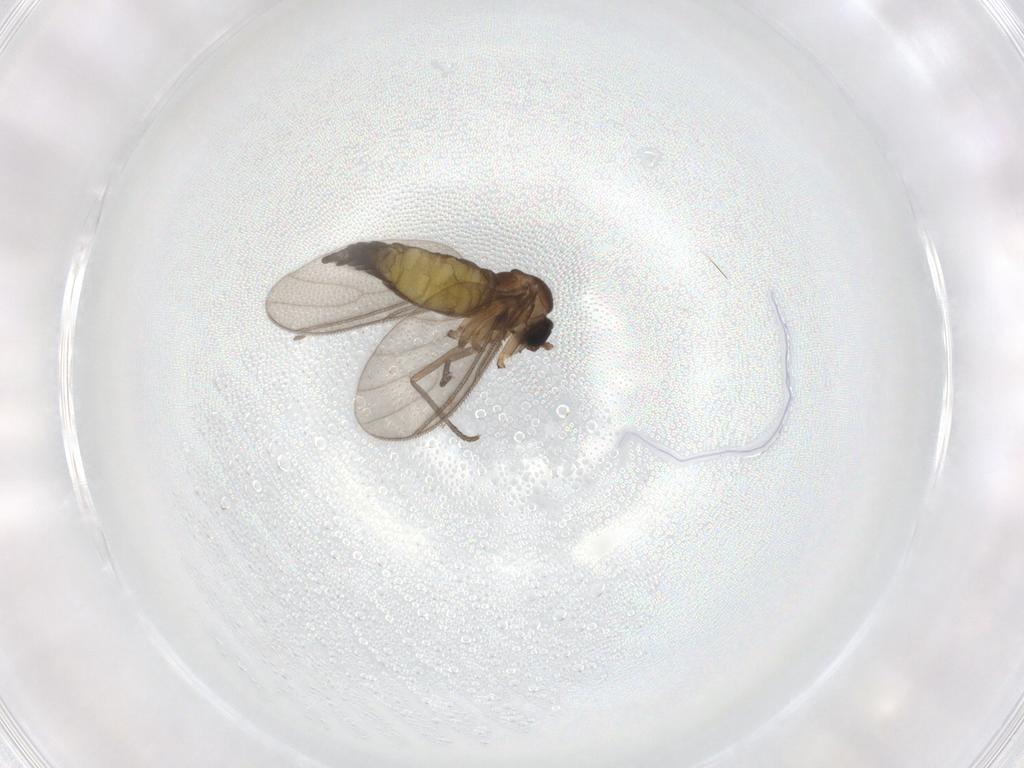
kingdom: Animalia
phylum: Arthropoda
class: Insecta
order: Diptera
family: Sciaridae
